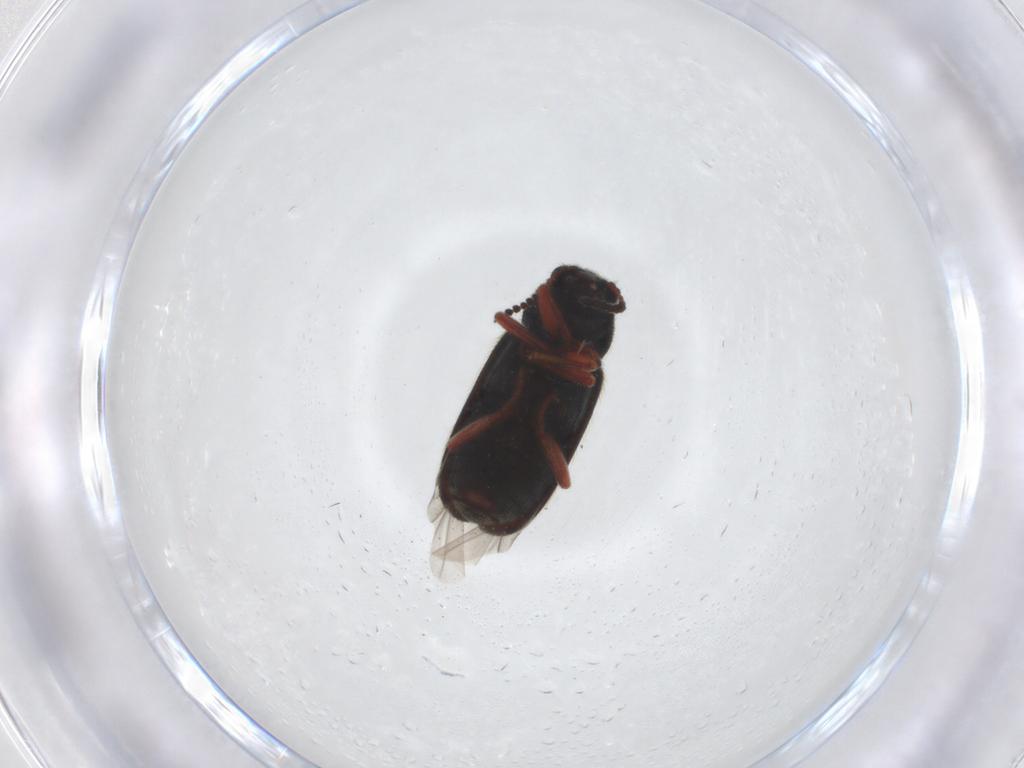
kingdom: Animalia
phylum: Arthropoda
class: Insecta
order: Coleoptera
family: Melyridae
